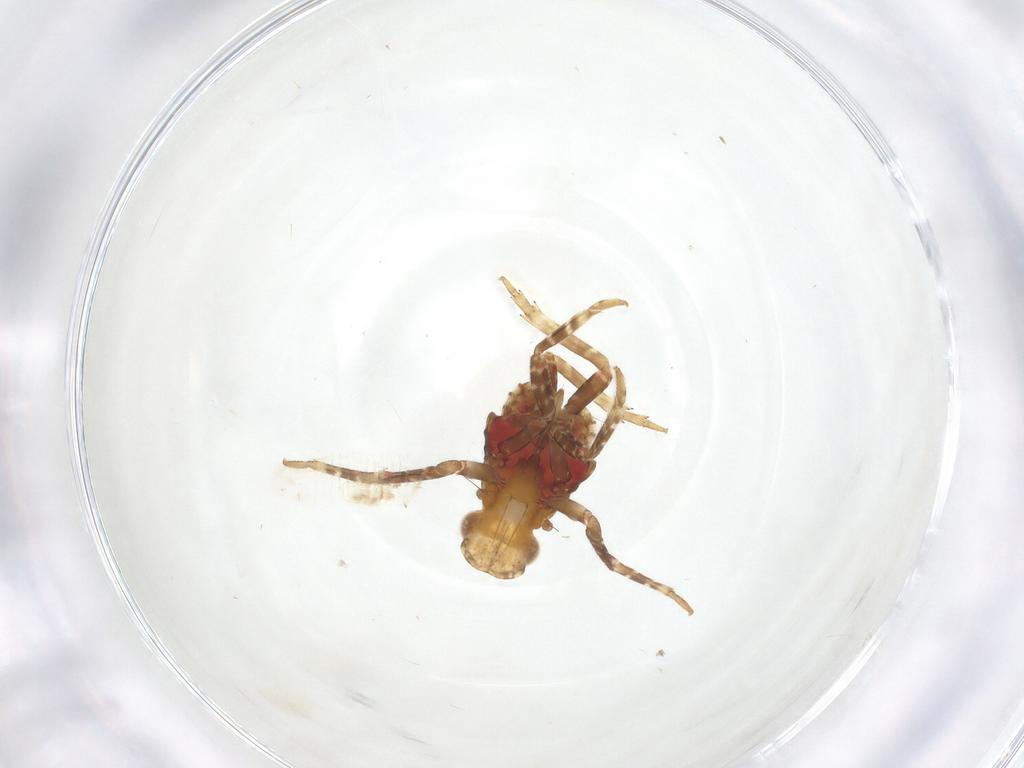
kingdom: Animalia
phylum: Arthropoda
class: Insecta
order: Hemiptera
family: Fulgoridae
